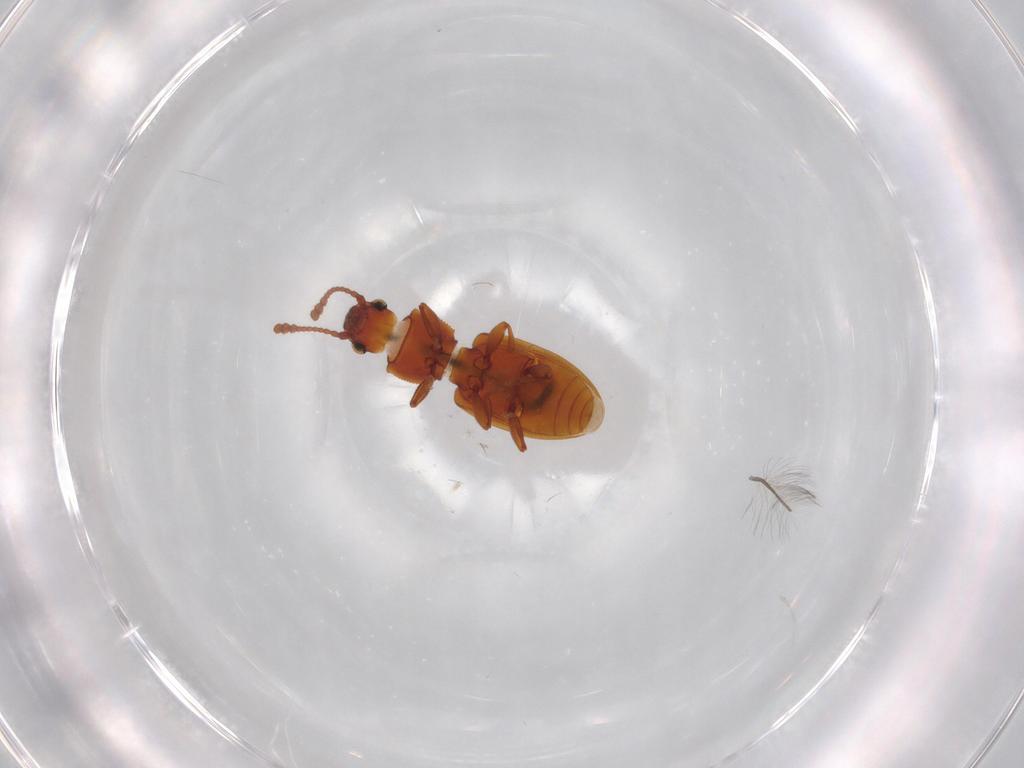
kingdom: Animalia
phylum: Arthropoda
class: Insecta
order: Coleoptera
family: Silvanidae
